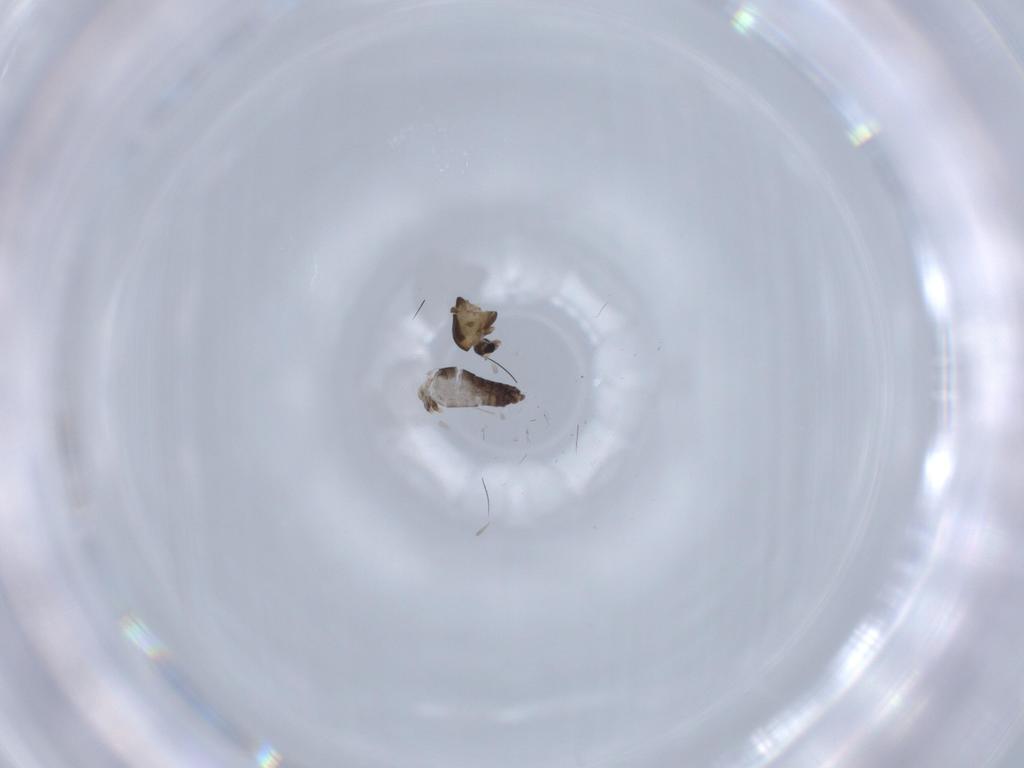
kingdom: Animalia
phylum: Arthropoda
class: Insecta
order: Diptera
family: Chironomidae
